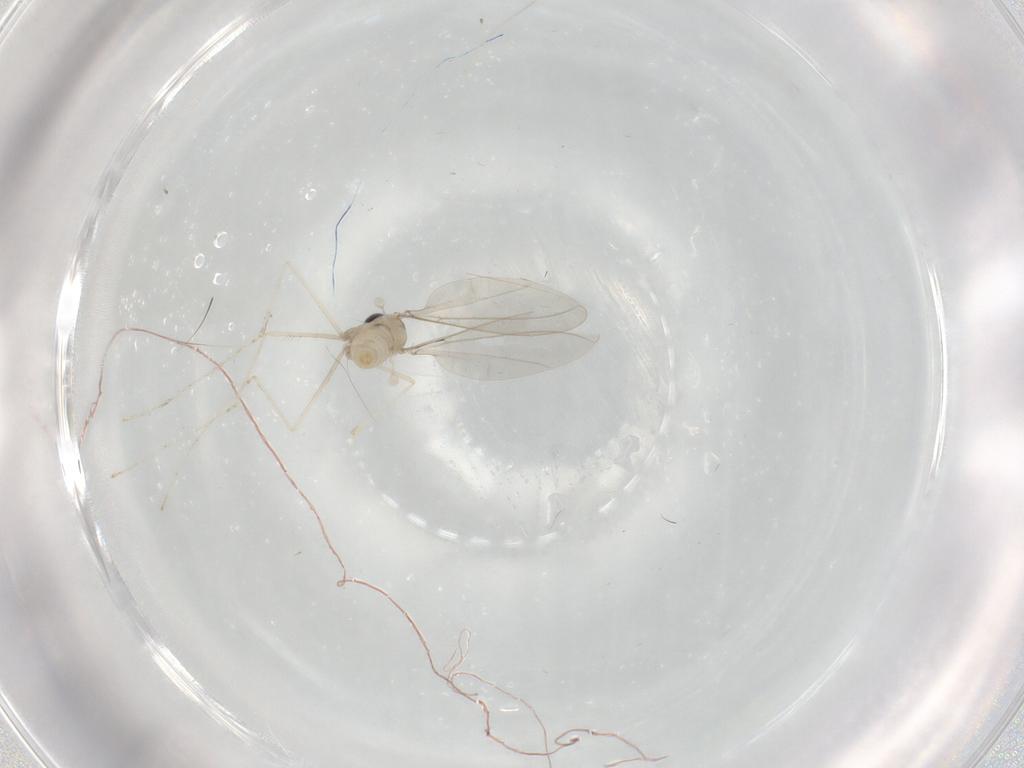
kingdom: Animalia
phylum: Arthropoda
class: Insecta
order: Diptera
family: Cecidomyiidae
